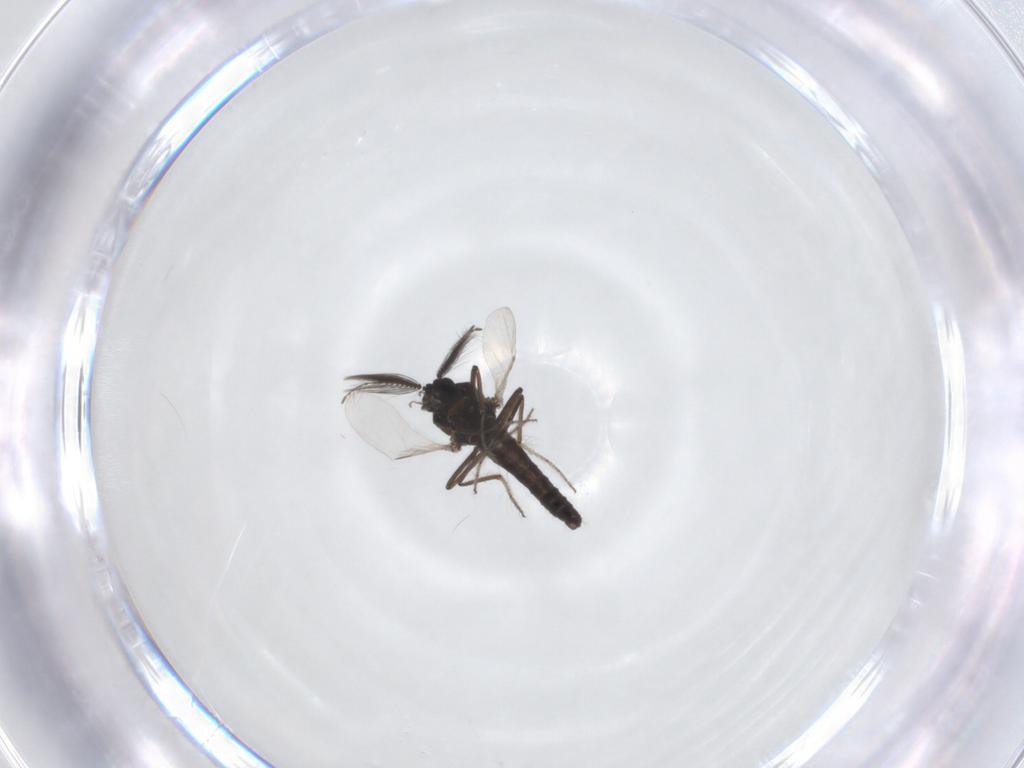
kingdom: Animalia
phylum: Arthropoda
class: Insecta
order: Diptera
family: Ceratopogonidae
